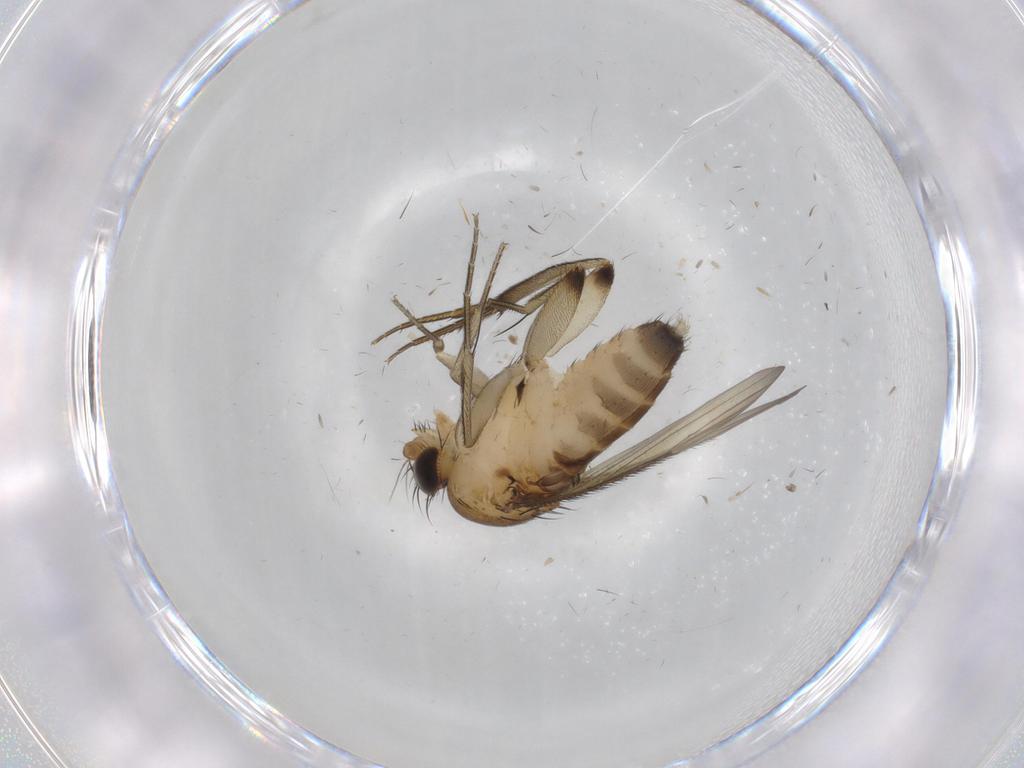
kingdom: Animalia
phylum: Arthropoda
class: Insecta
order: Diptera
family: Phoridae
